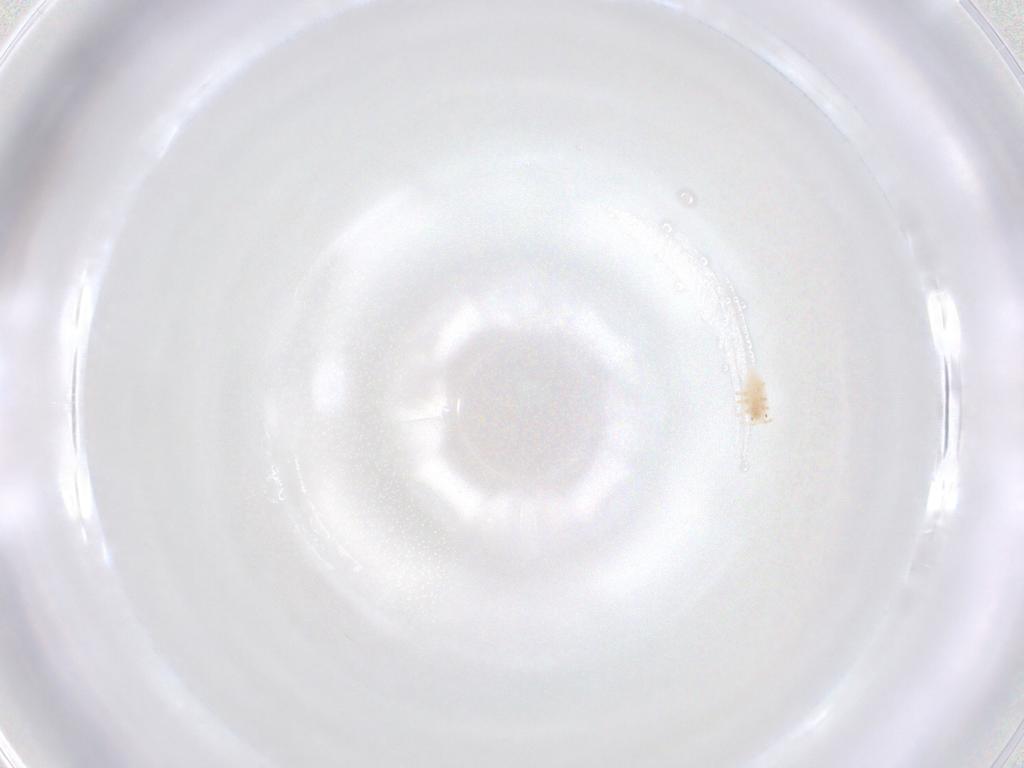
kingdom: Animalia
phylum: Arthropoda
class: Insecta
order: Hemiptera
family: Cicadellidae
